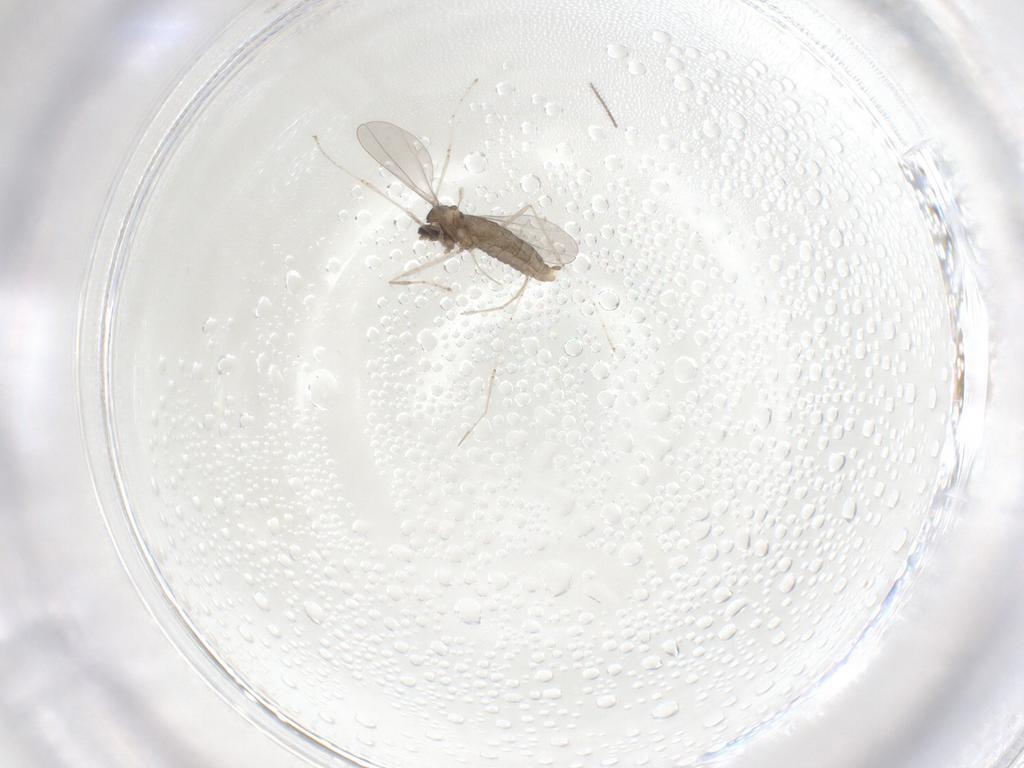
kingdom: Animalia
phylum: Arthropoda
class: Insecta
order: Diptera
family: Cecidomyiidae
